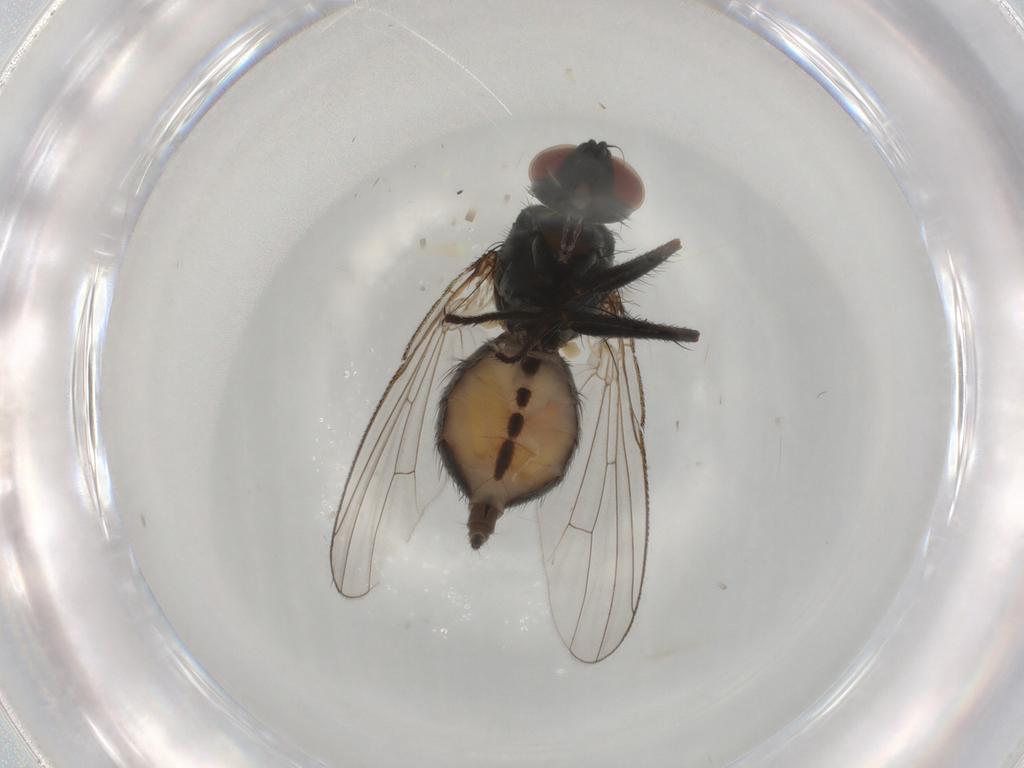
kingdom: Animalia
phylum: Arthropoda
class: Insecta
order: Diptera
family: Muscidae
